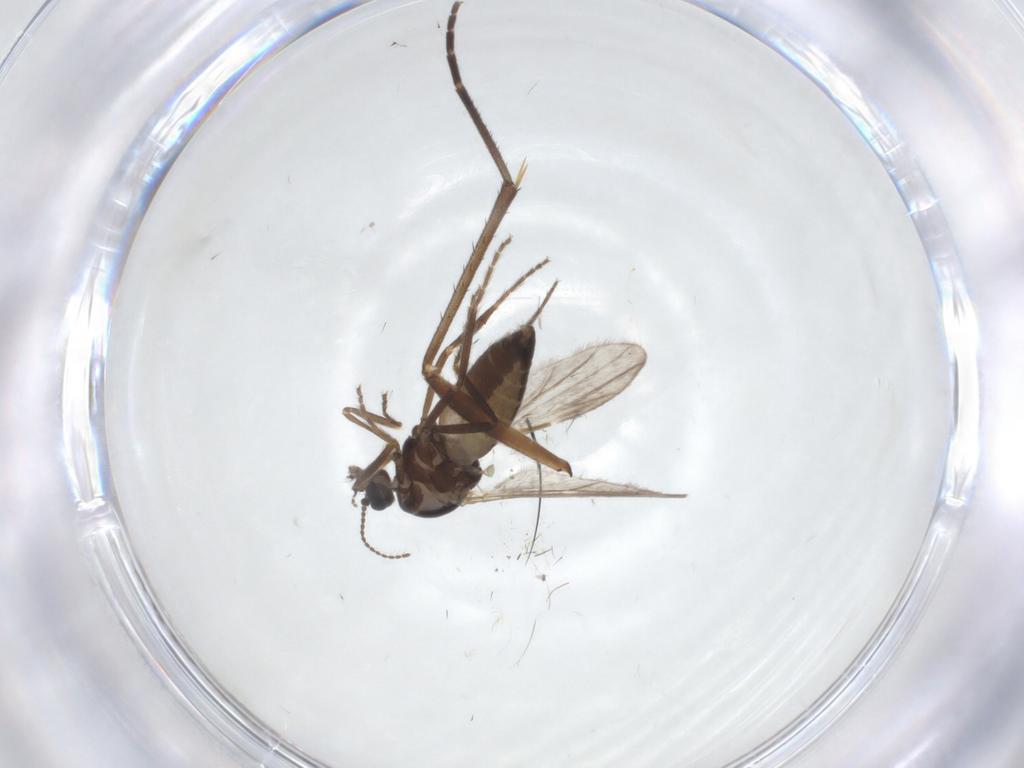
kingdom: Animalia
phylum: Arthropoda
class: Insecta
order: Diptera
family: Ceratopogonidae
